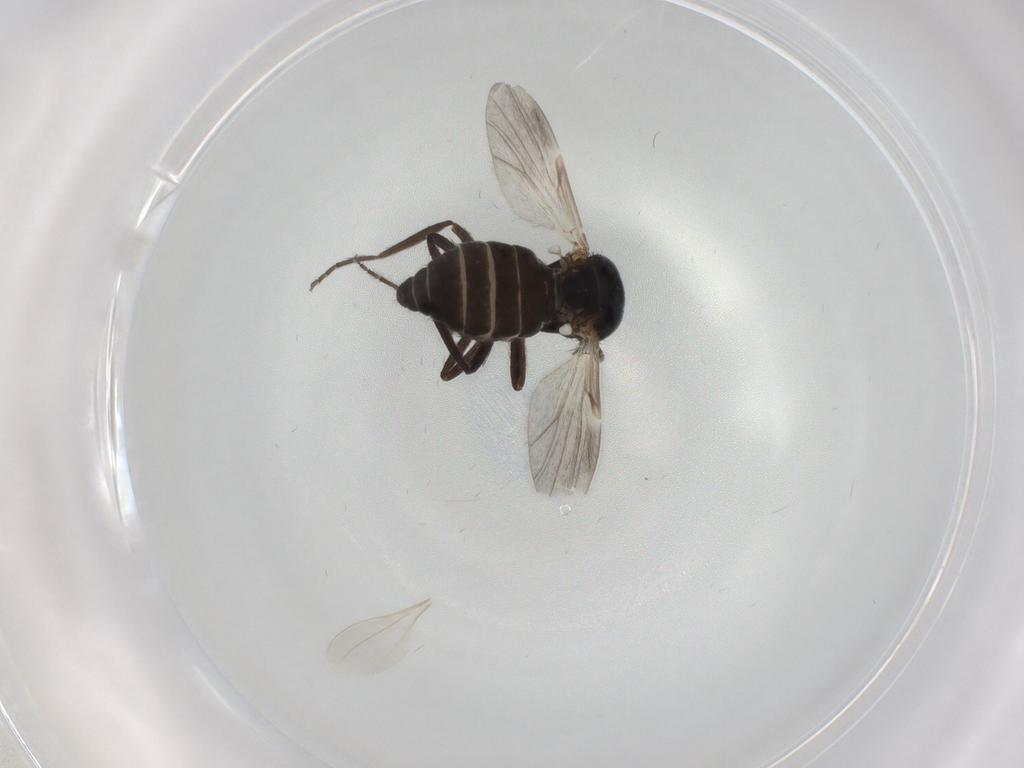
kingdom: Animalia
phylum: Arthropoda
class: Insecta
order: Diptera
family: Ceratopogonidae
